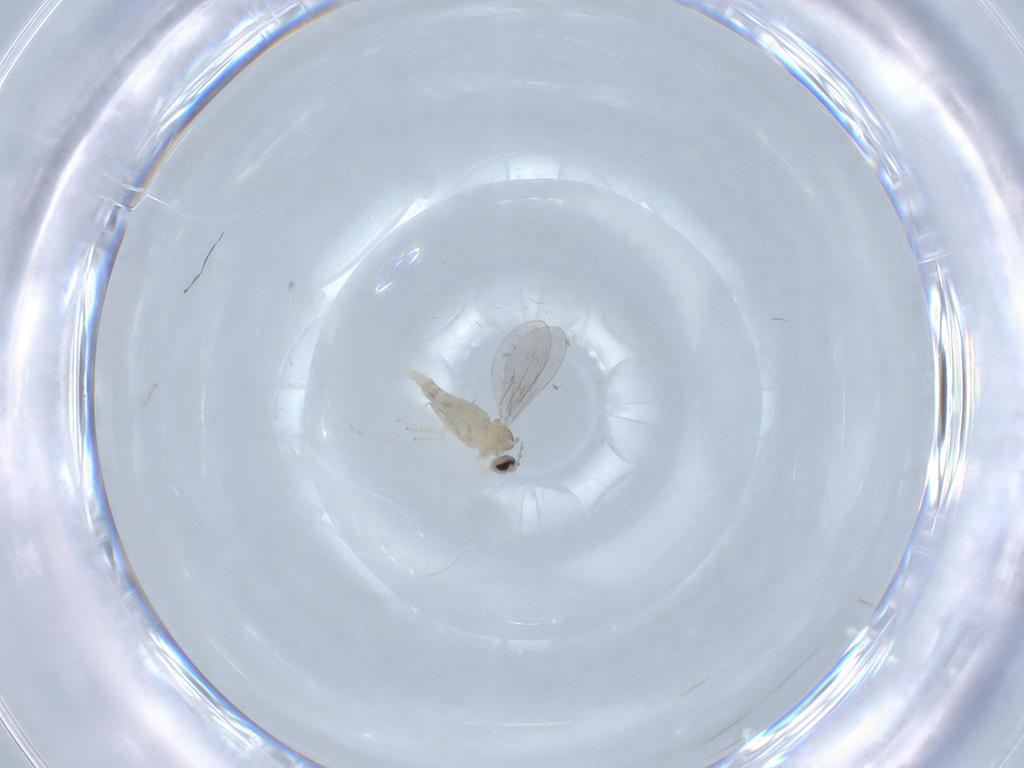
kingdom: Animalia
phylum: Arthropoda
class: Insecta
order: Diptera
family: Cecidomyiidae
